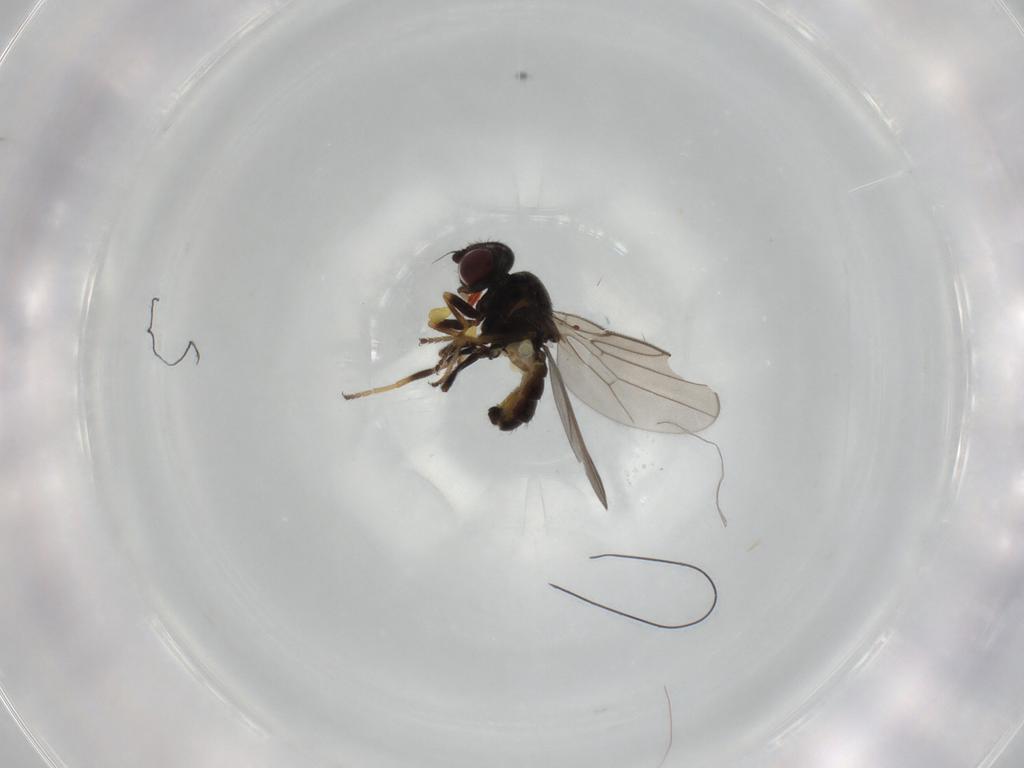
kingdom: Animalia
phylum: Arthropoda
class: Insecta
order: Diptera
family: Chloropidae
